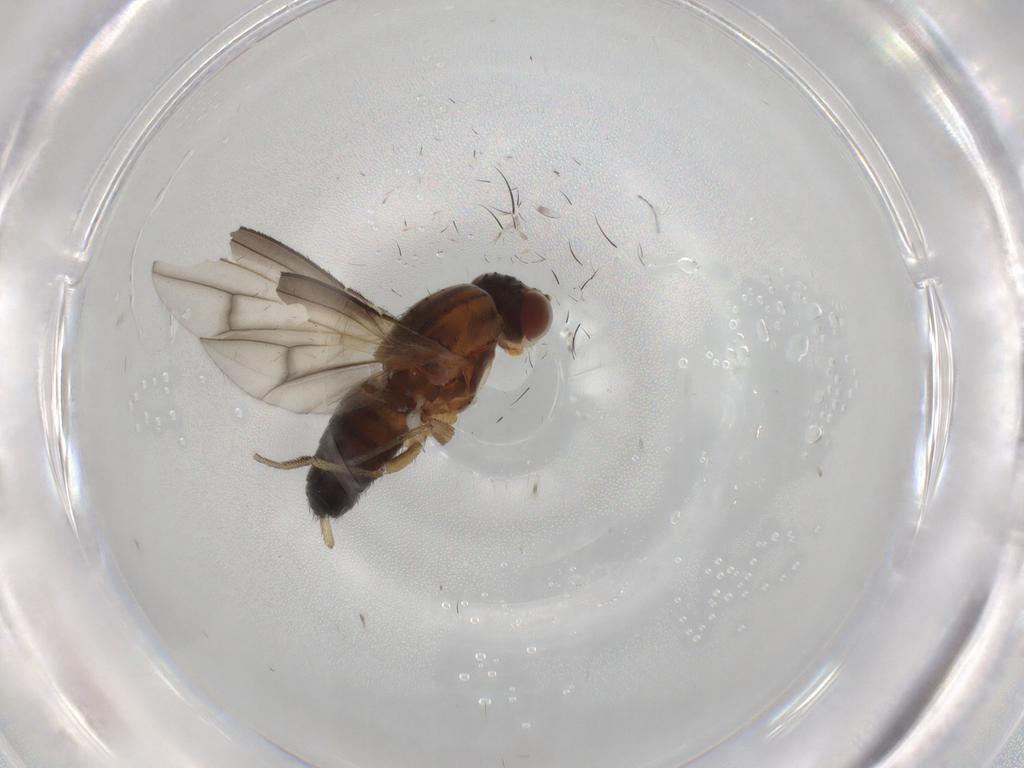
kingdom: Animalia
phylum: Arthropoda
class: Insecta
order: Diptera
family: Heleomyzidae
